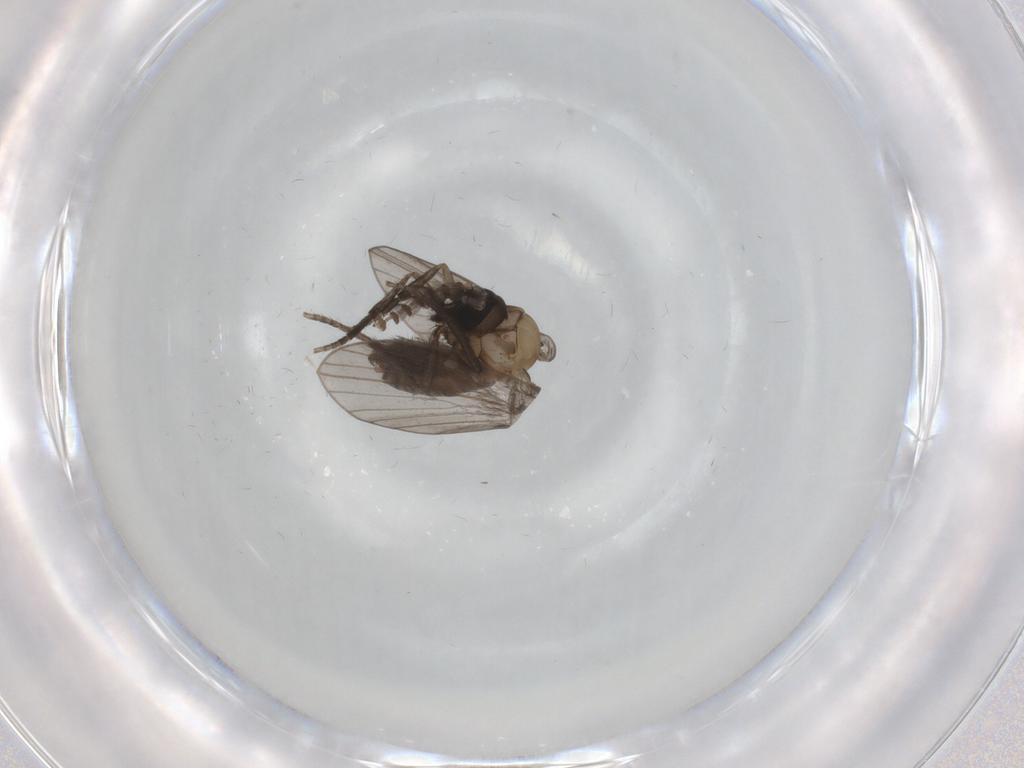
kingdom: Animalia
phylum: Arthropoda
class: Insecta
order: Diptera
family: Psychodidae
